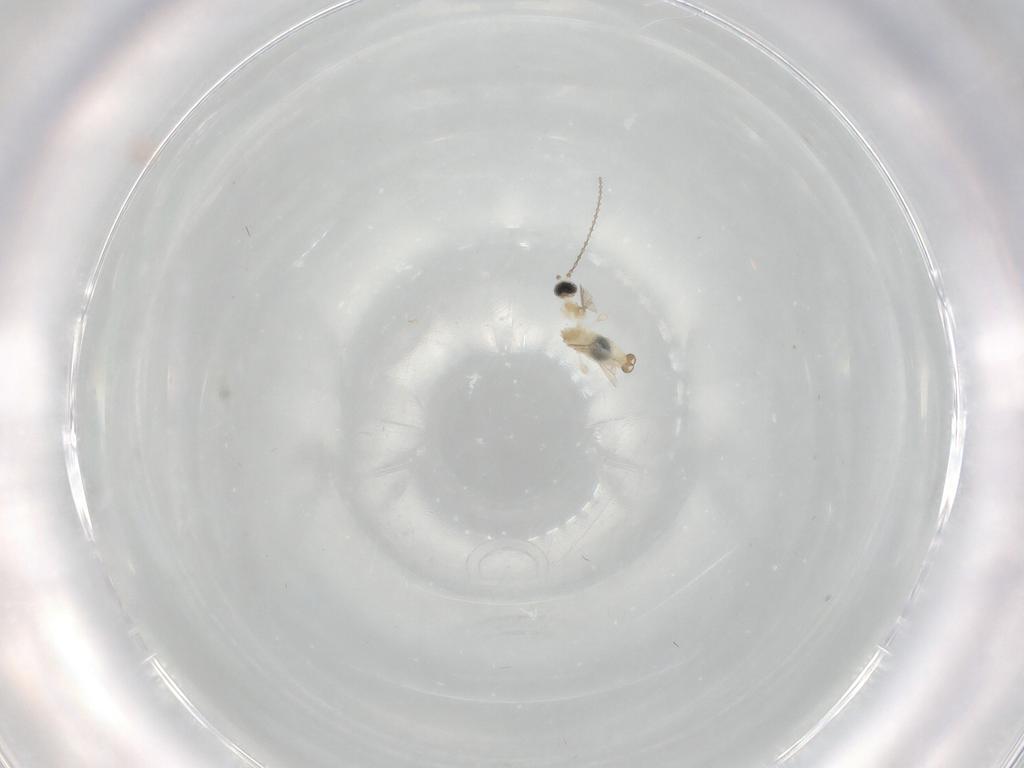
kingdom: Animalia
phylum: Arthropoda
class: Insecta
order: Diptera
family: Cecidomyiidae
